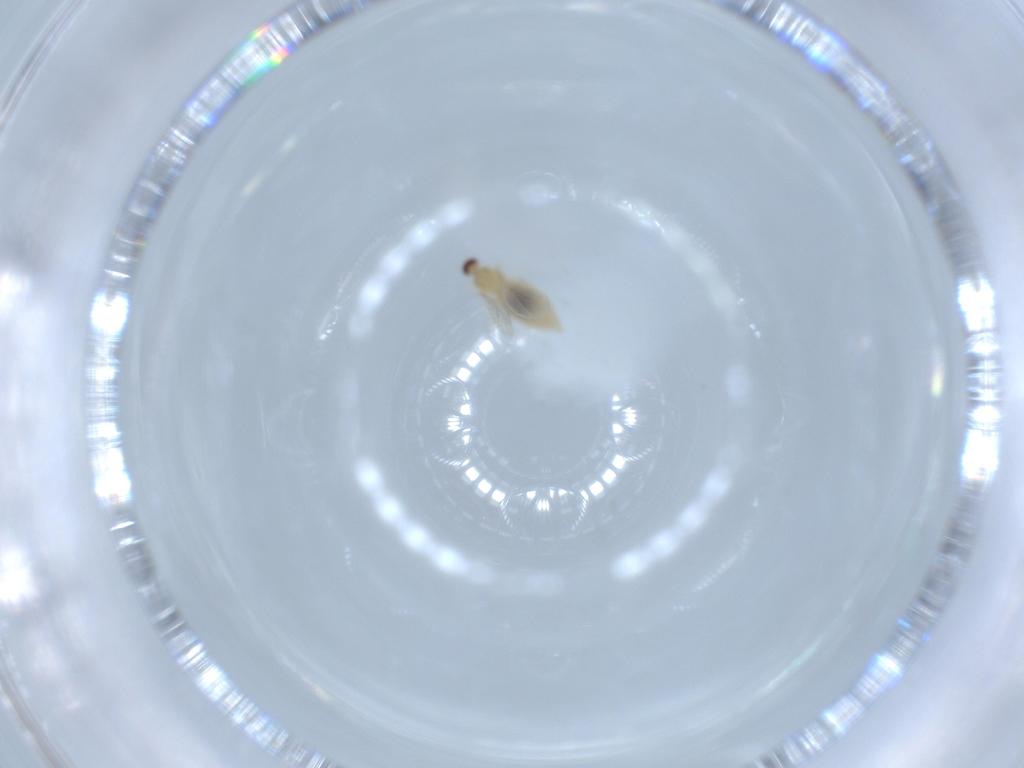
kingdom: Animalia
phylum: Arthropoda
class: Insecta
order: Diptera
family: Cecidomyiidae
